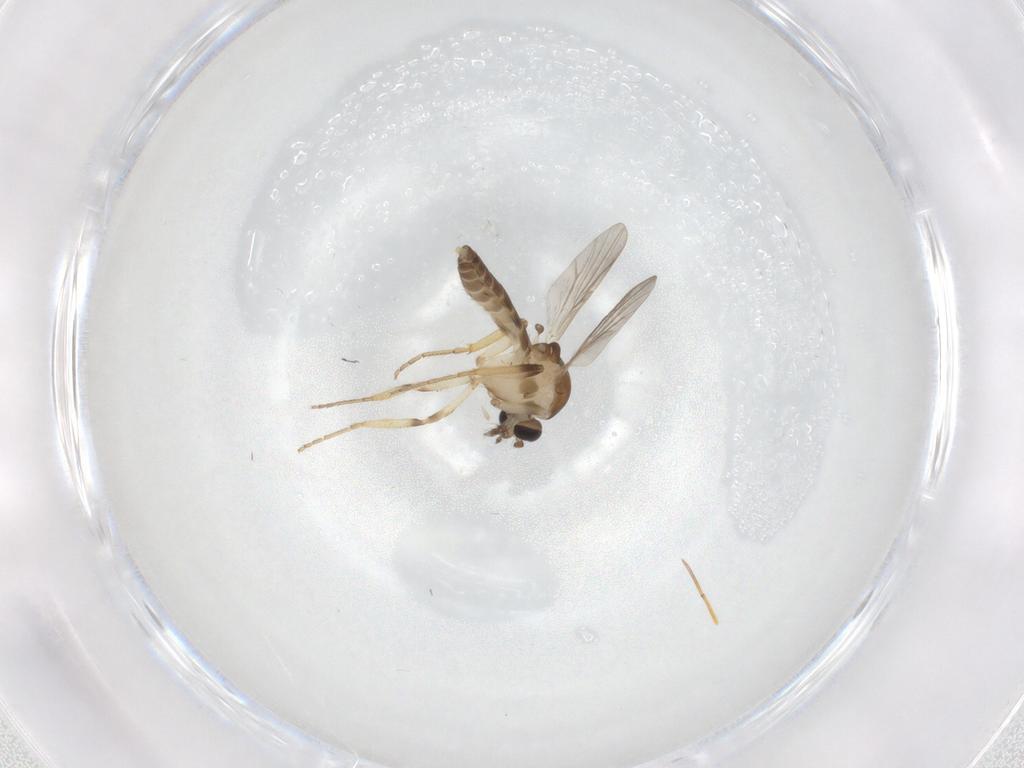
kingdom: Animalia
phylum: Arthropoda
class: Insecta
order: Diptera
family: Ceratopogonidae
